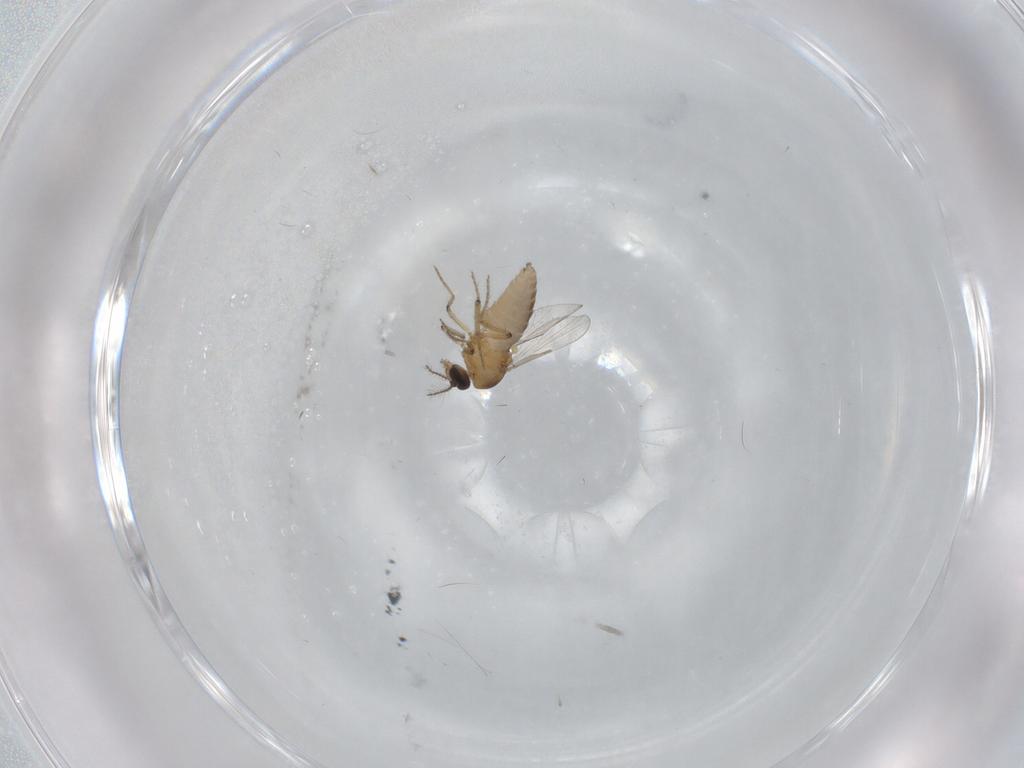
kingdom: Animalia
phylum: Arthropoda
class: Insecta
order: Diptera
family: Ceratopogonidae
